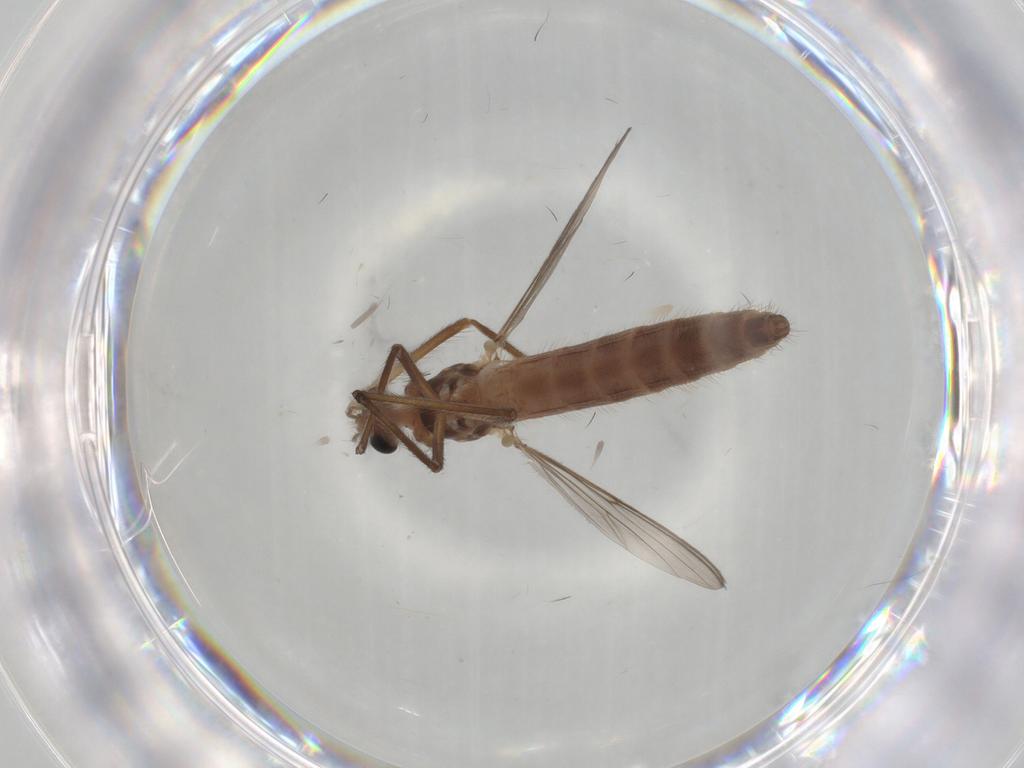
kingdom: Animalia
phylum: Arthropoda
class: Insecta
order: Diptera
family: Chironomidae
